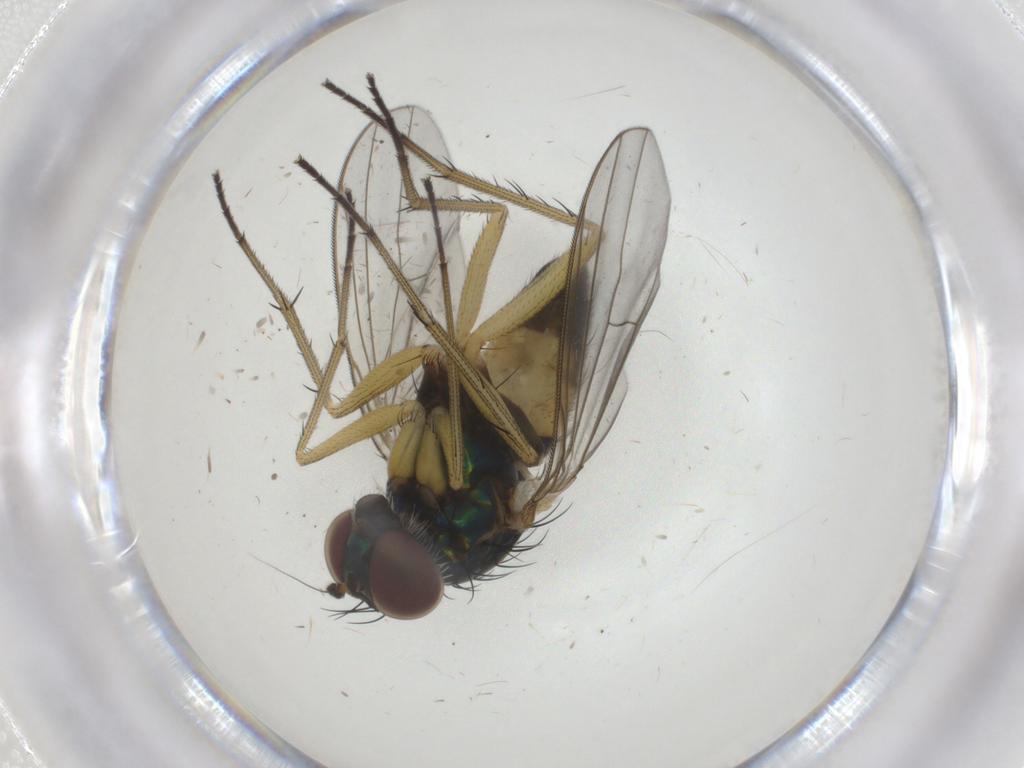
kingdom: Animalia
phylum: Arthropoda
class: Insecta
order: Diptera
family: Dolichopodidae
